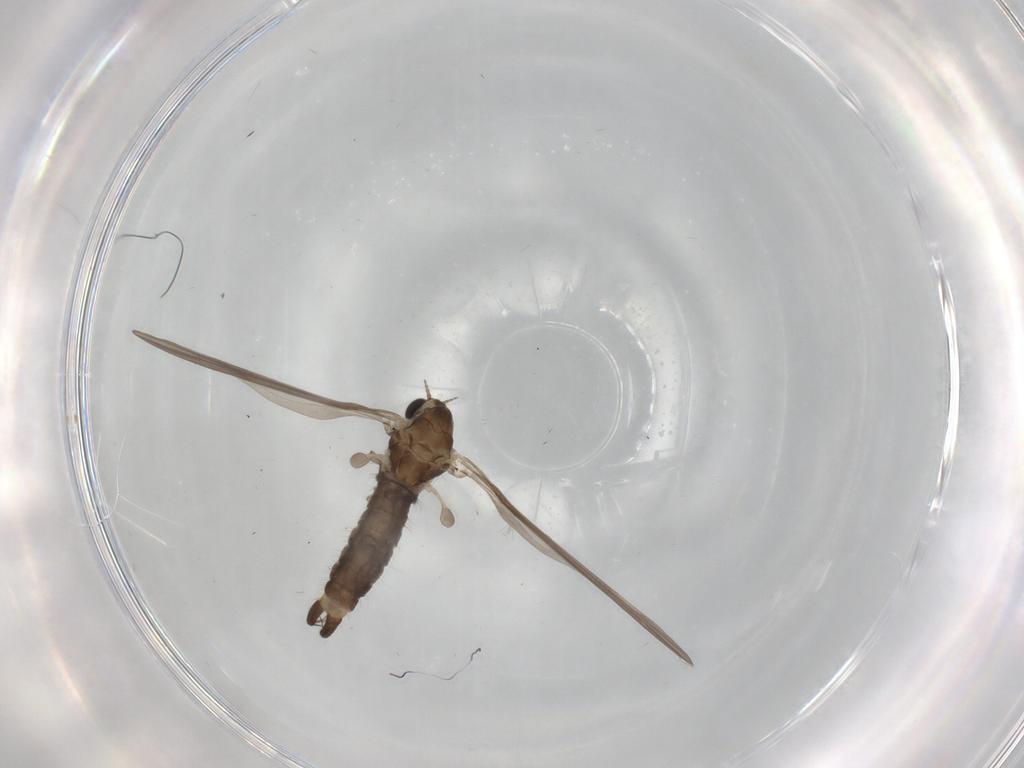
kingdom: Animalia
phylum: Arthropoda
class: Insecta
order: Diptera
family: Limoniidae
